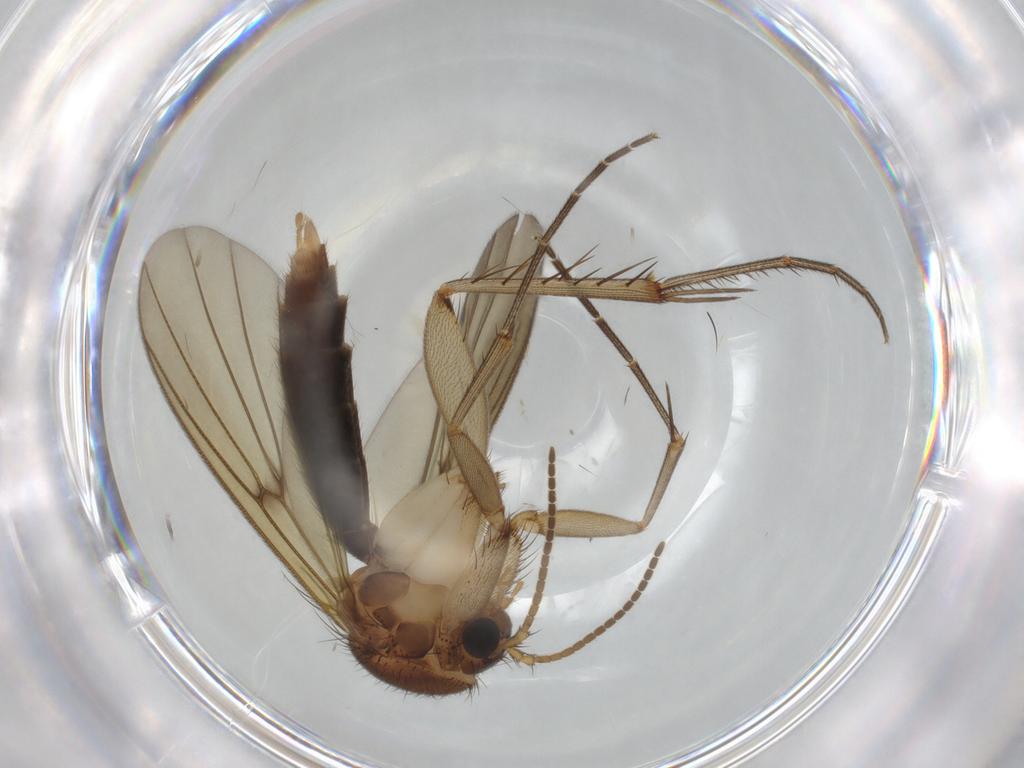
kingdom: Animalia
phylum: Arthropoda
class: Insecta
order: Diptera
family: Mycetophilidae
